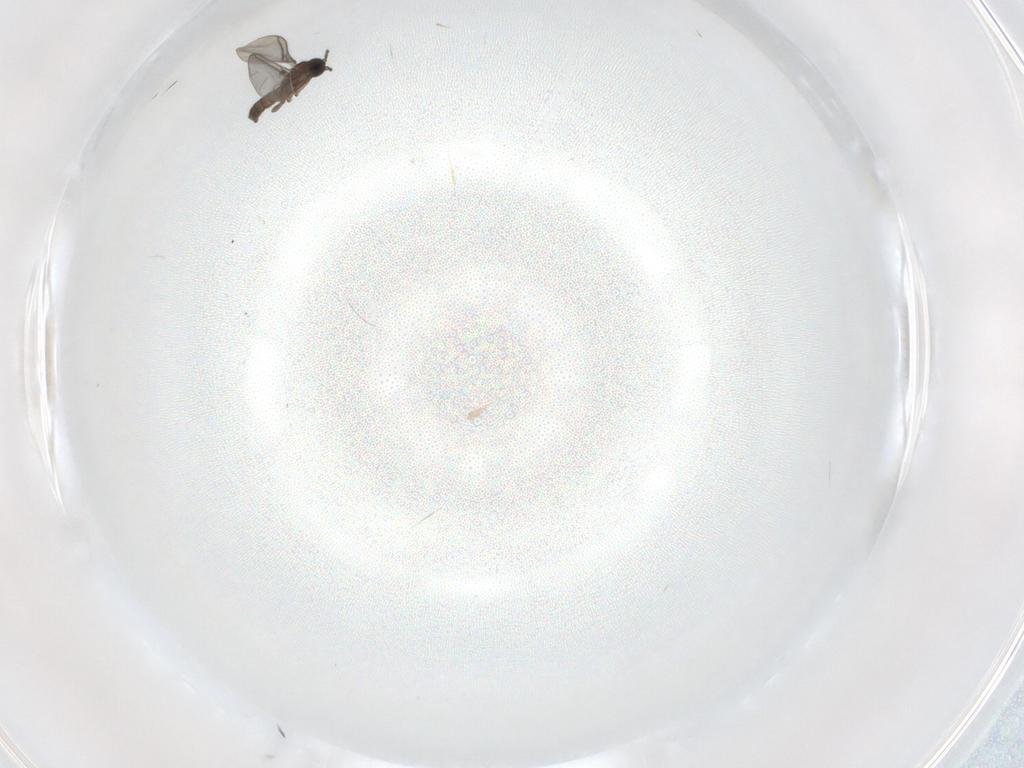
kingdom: Animalia
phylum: Arthropoda
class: Insecta
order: Diptera
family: Sciaridae
